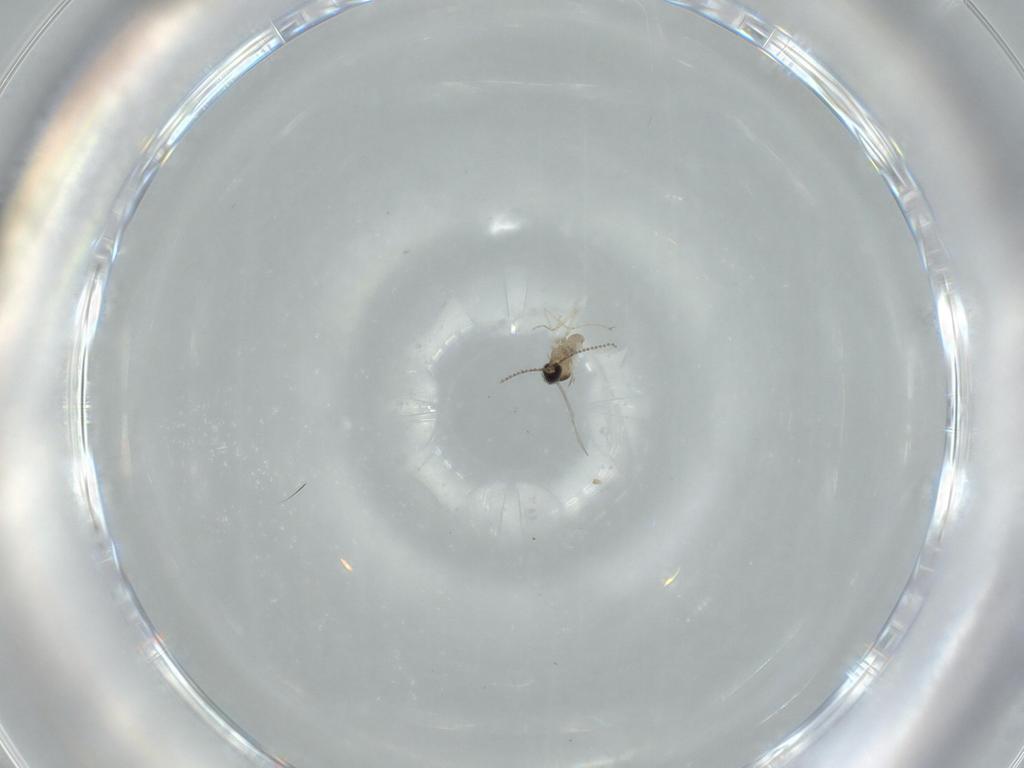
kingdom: Animalia
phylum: Arthropoda
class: Insecta
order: Diptera
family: Cecidomyiidae
